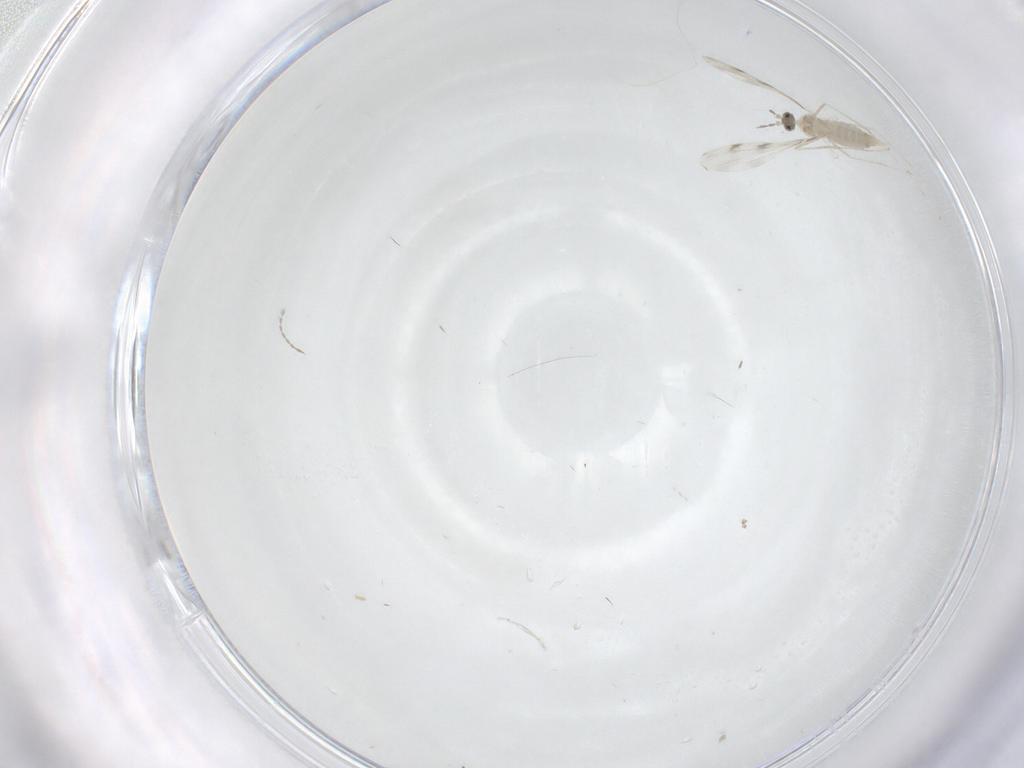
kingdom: Animalia
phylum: Arthropoda
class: Insecta
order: Diptera
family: Cecidomyiidae
